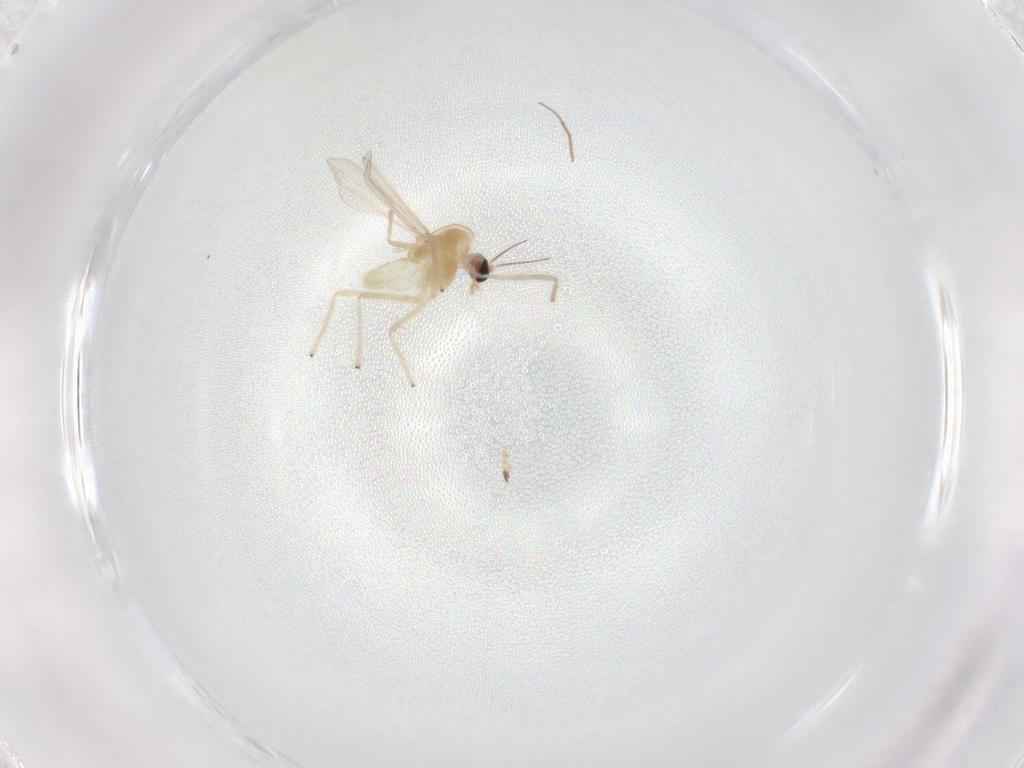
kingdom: Animalia
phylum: Arthropoda
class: Insecta
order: Diptera
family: Chironomidae
